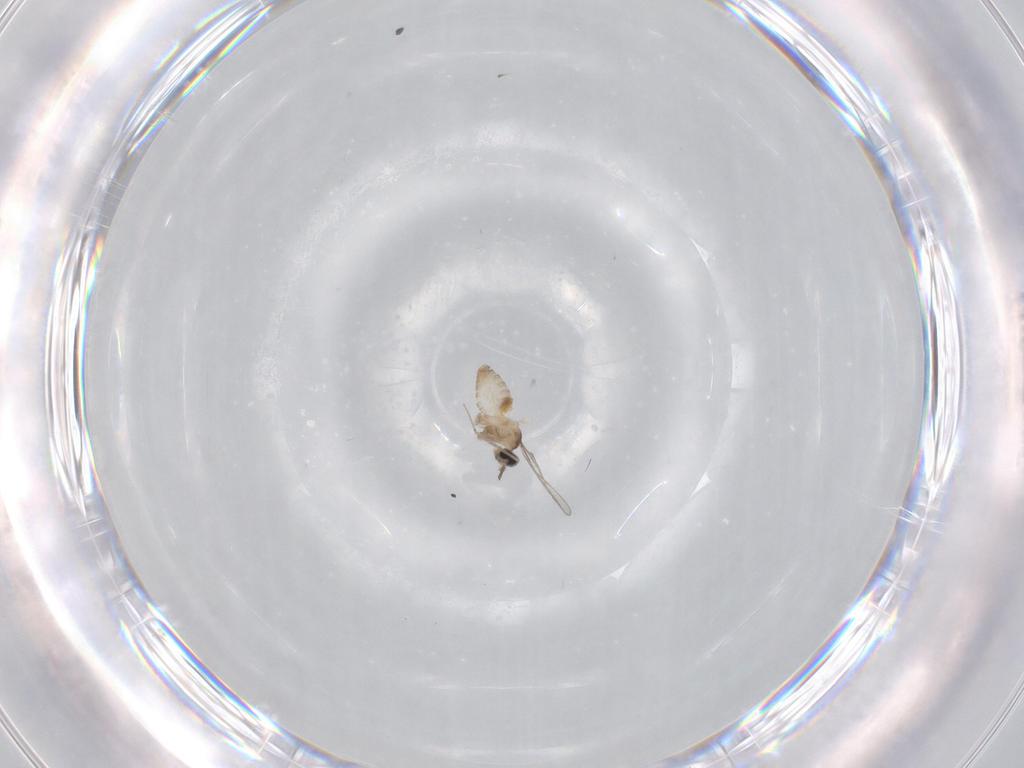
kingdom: Animalia
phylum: Arthropoda
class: Insecta
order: Diptera
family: Cecidomyiidae
